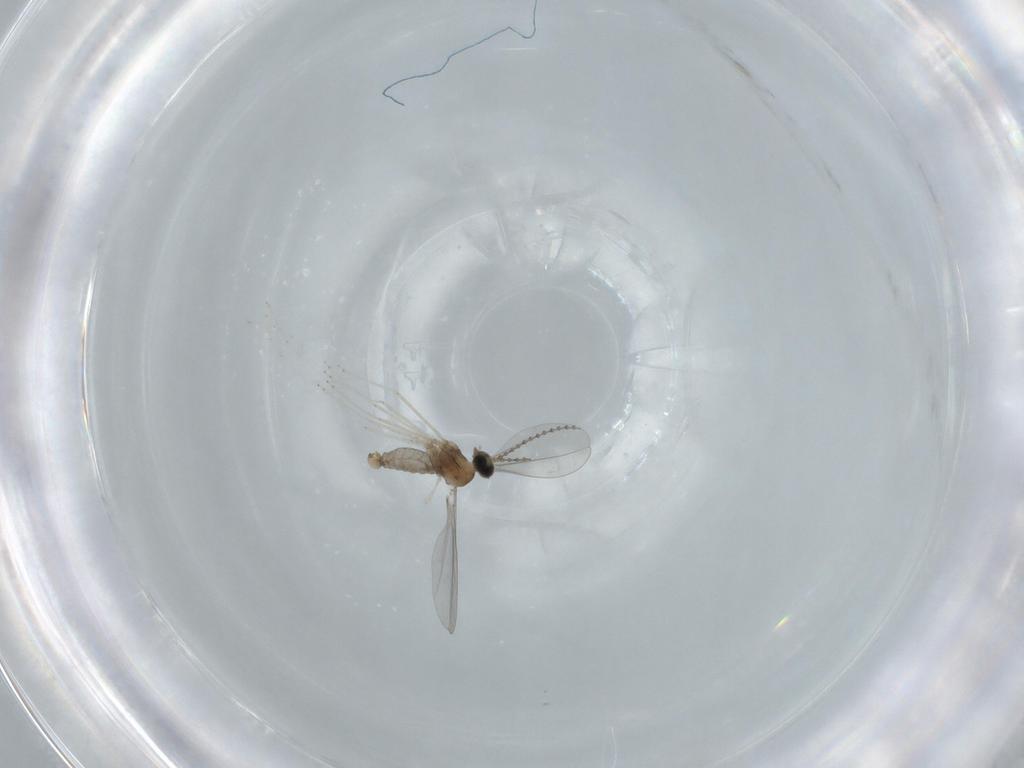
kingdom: Animalia
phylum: Arthropoda
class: Insecta
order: Diptera
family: Cecidomyiidae
